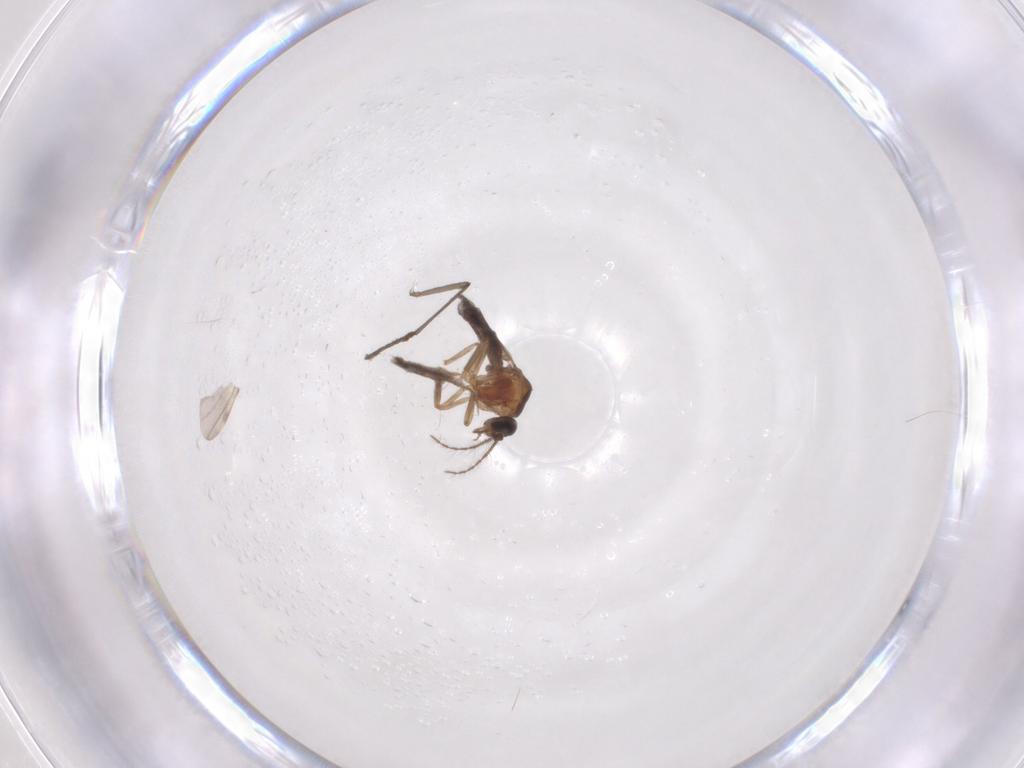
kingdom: Animalia
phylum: Arthropoda
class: Insecta
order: Diptera
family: Ceratopogonidae
